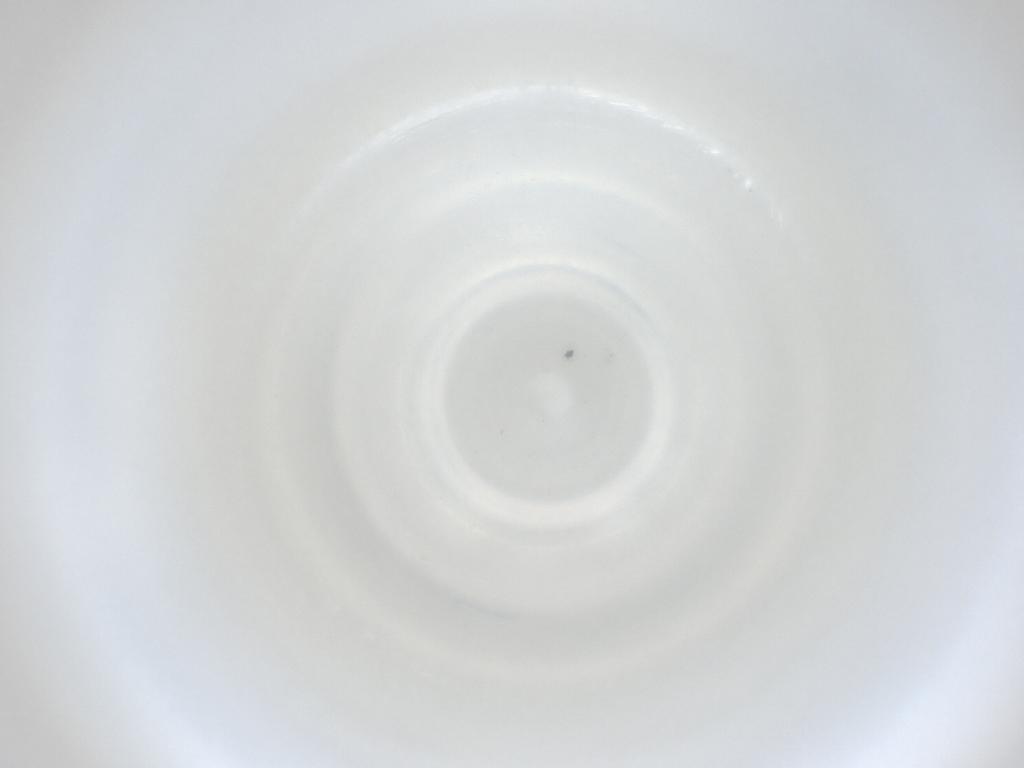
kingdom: Animalia
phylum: Arthropoda
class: Insecta
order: Diptera
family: Cecidomyiidae
